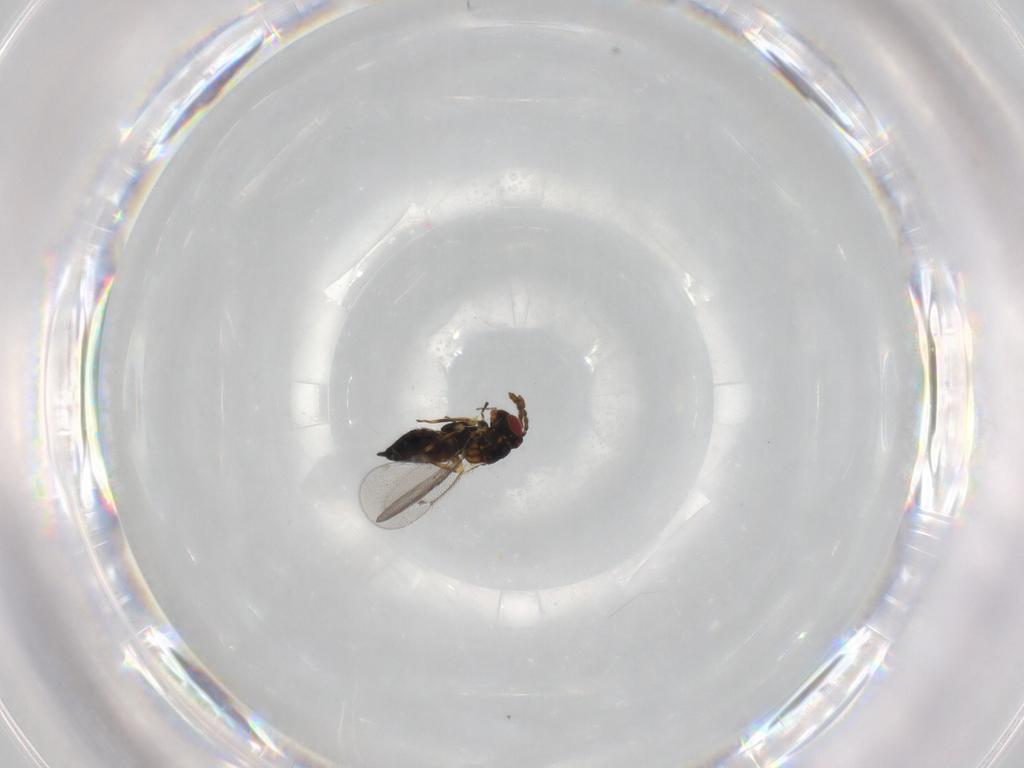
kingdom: Animalia
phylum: Arthropoda
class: Insecta
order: Hymenoptera
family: Eulophidae
